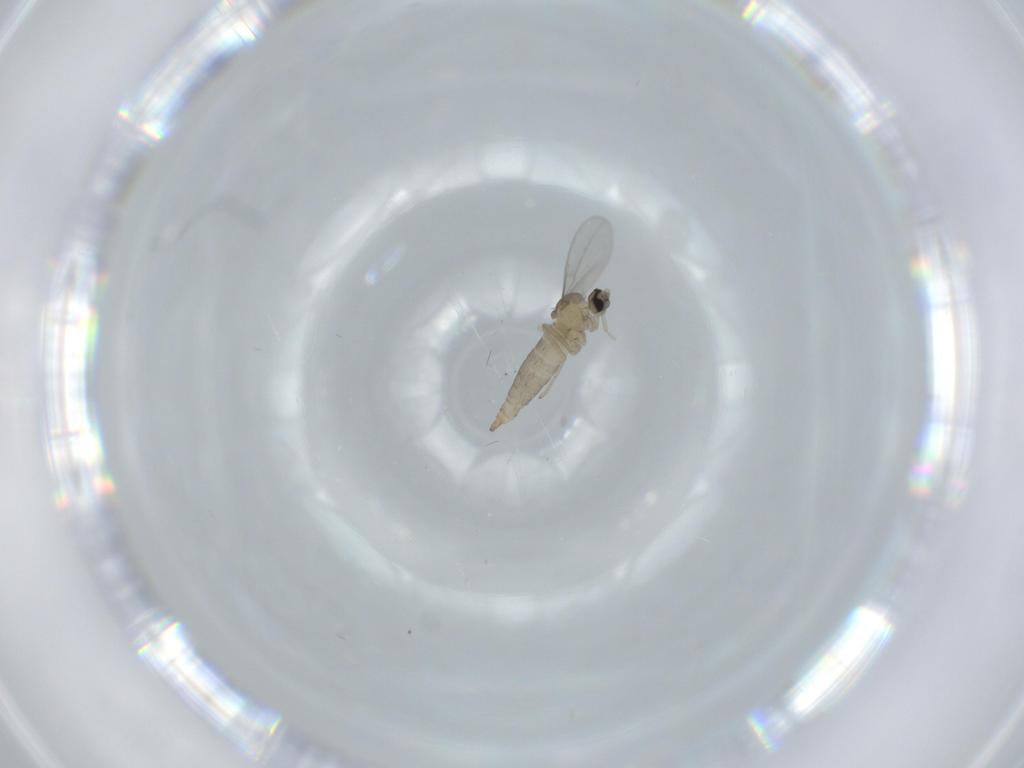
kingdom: Animalia
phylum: Arthropoda
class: Insecta
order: Diptera
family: Cecidomyiidae
